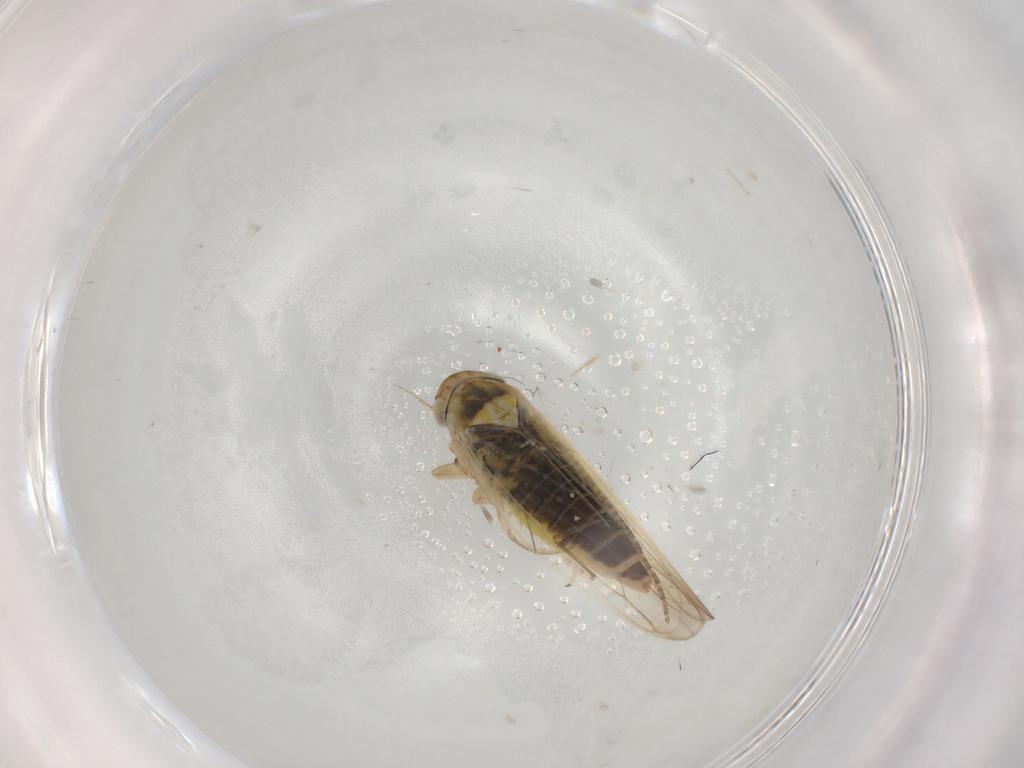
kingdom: Animalia
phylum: Arthropoda
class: Insecta
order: Hemiptera
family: Cicadellidae
